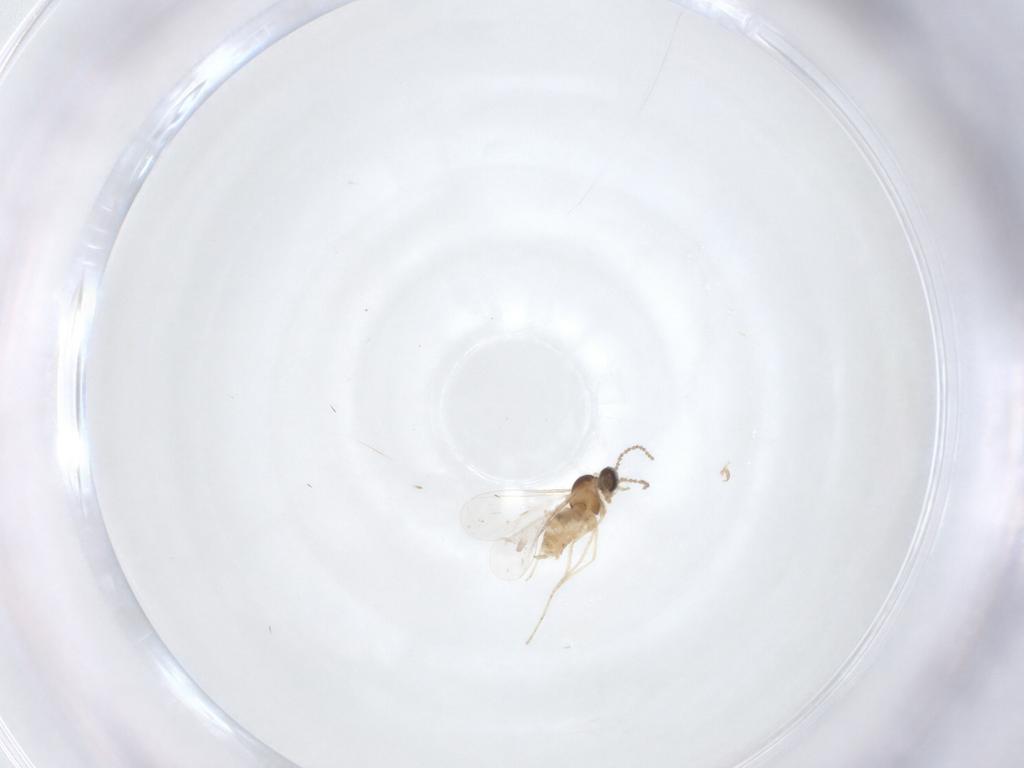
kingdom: Animalia
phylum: Arthropoda
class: Insecta
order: Diptera
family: Cecidomyiidae
